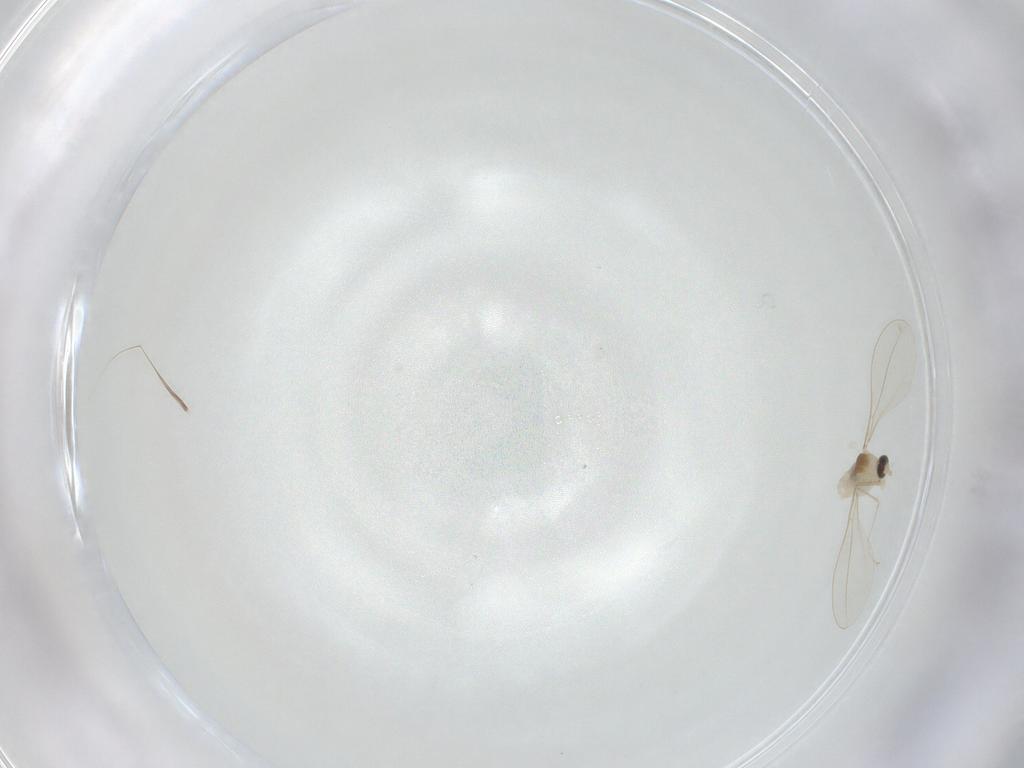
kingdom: Animalia
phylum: Arthropoda
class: Insecta
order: Diptera
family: Cecidomyiidae
